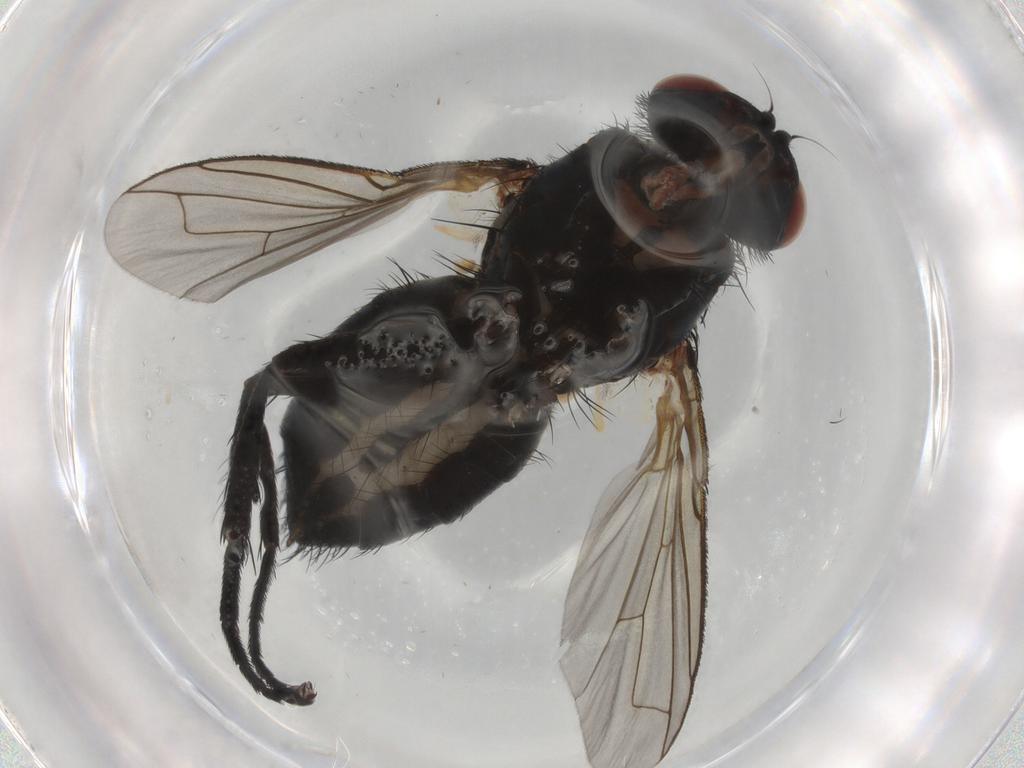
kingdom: Animalia
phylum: Arthropoda
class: Insecta
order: Diptera
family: Calliphoridae
